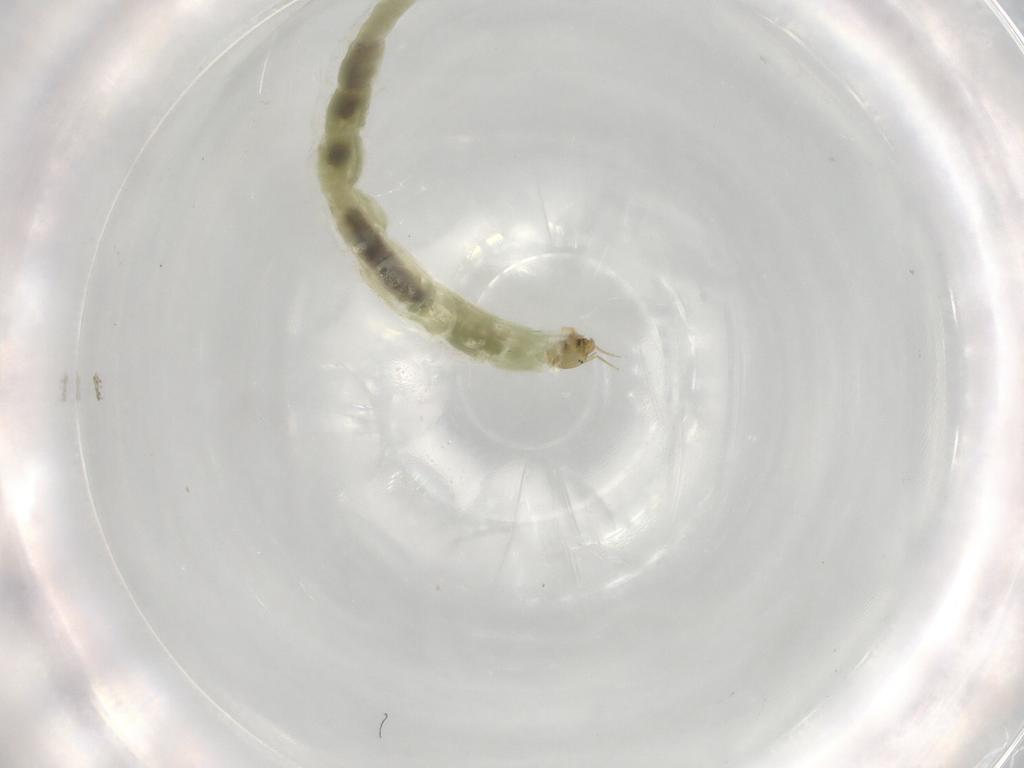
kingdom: Animalia
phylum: Arthropoda
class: Insecta
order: Diptera
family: Chironomidae
